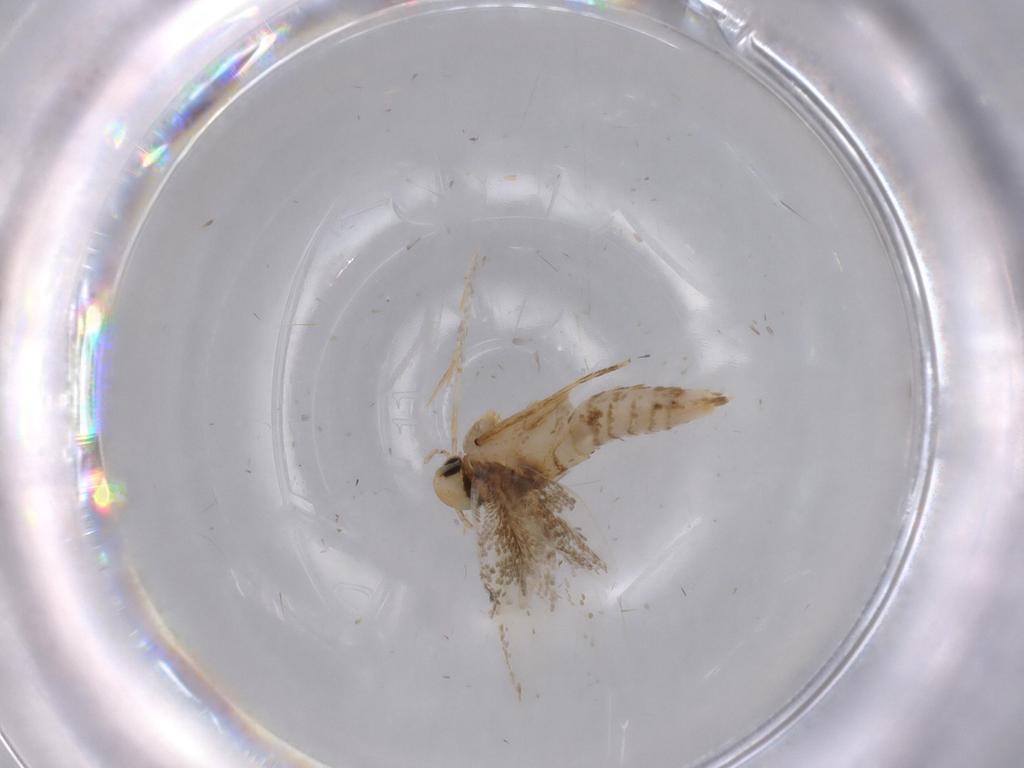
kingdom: Animalia
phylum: Arthropoda
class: Insecta
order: Lepidoptera
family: Tineidae
